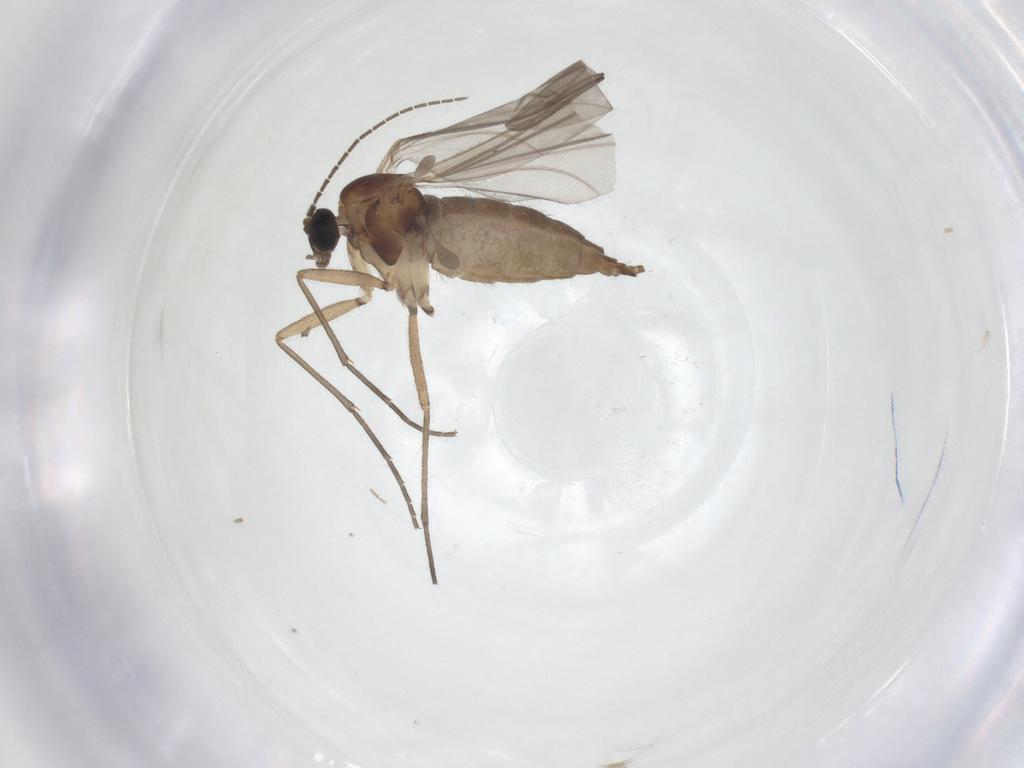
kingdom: Animalia
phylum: Arthropoda
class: Insecta
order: Diptera
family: Sciaridae
